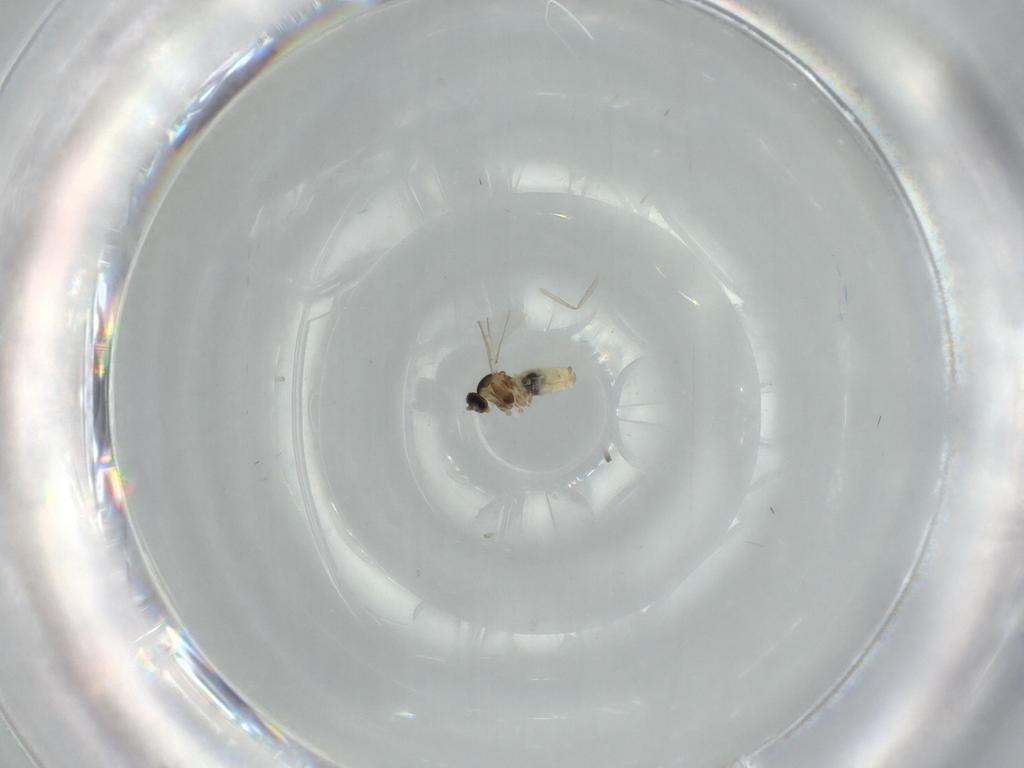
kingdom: Animalia
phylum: Arthropoda
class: Insecta
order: Diptera
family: Cecidomyiidae
